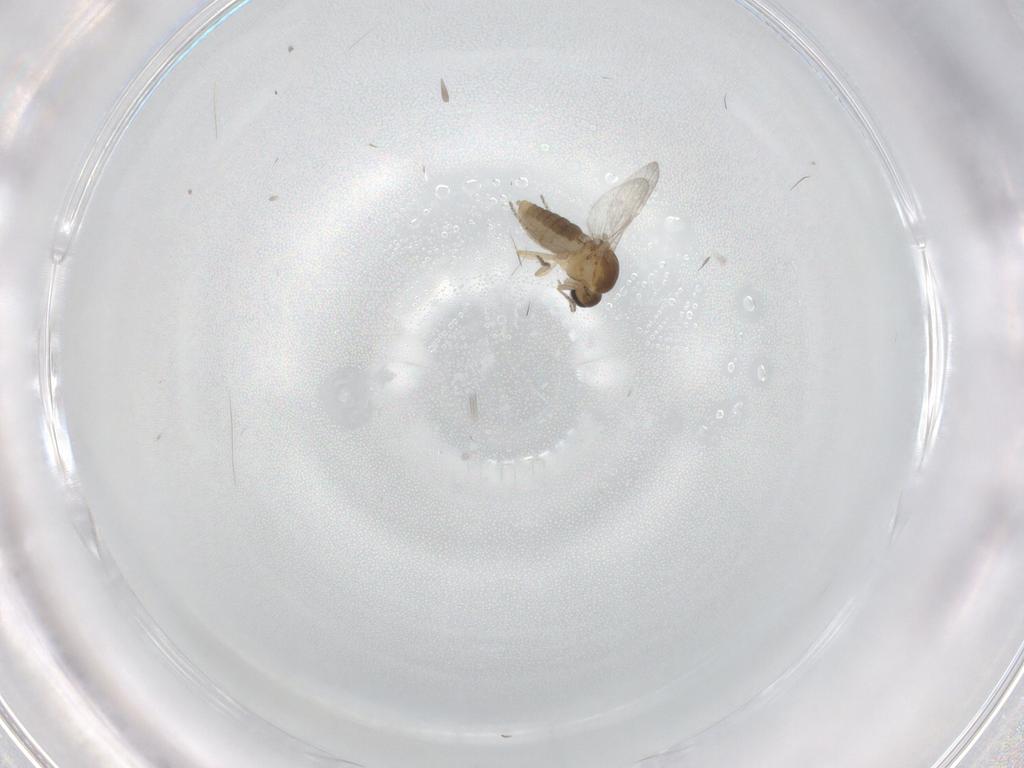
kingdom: Animalia
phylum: Arthropoda
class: Insecta
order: Diptera
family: Ceratopogonidae
